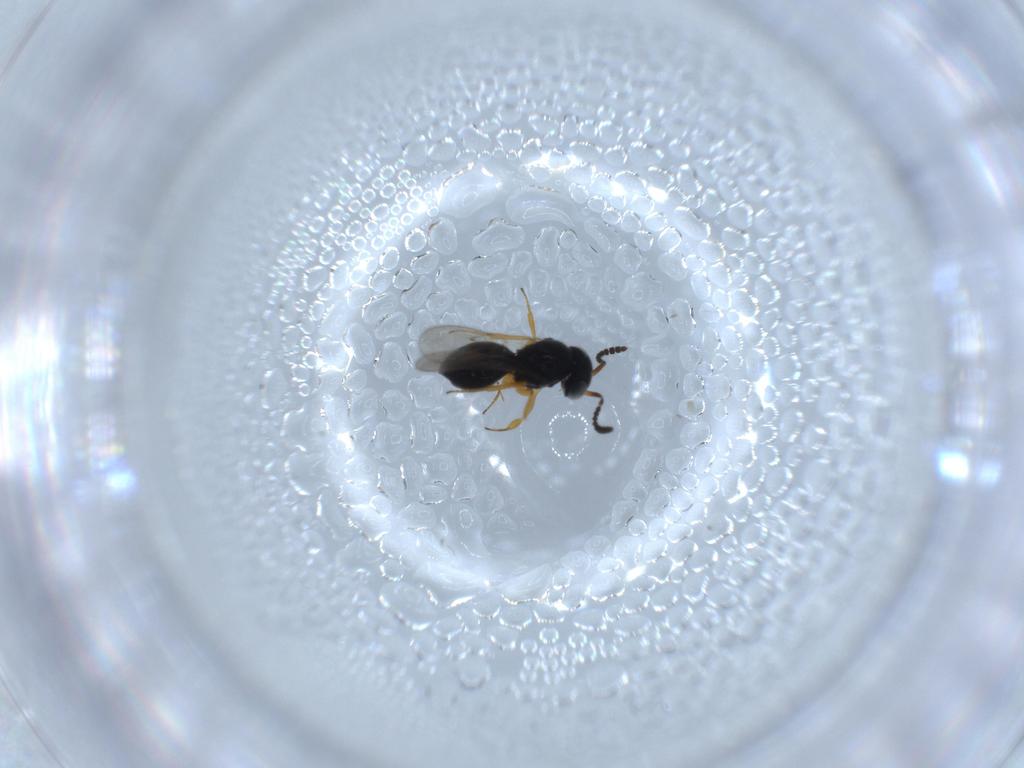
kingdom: Animalia
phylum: Arthropoda
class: Insecta
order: Hymenoptera
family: Scelionidae
